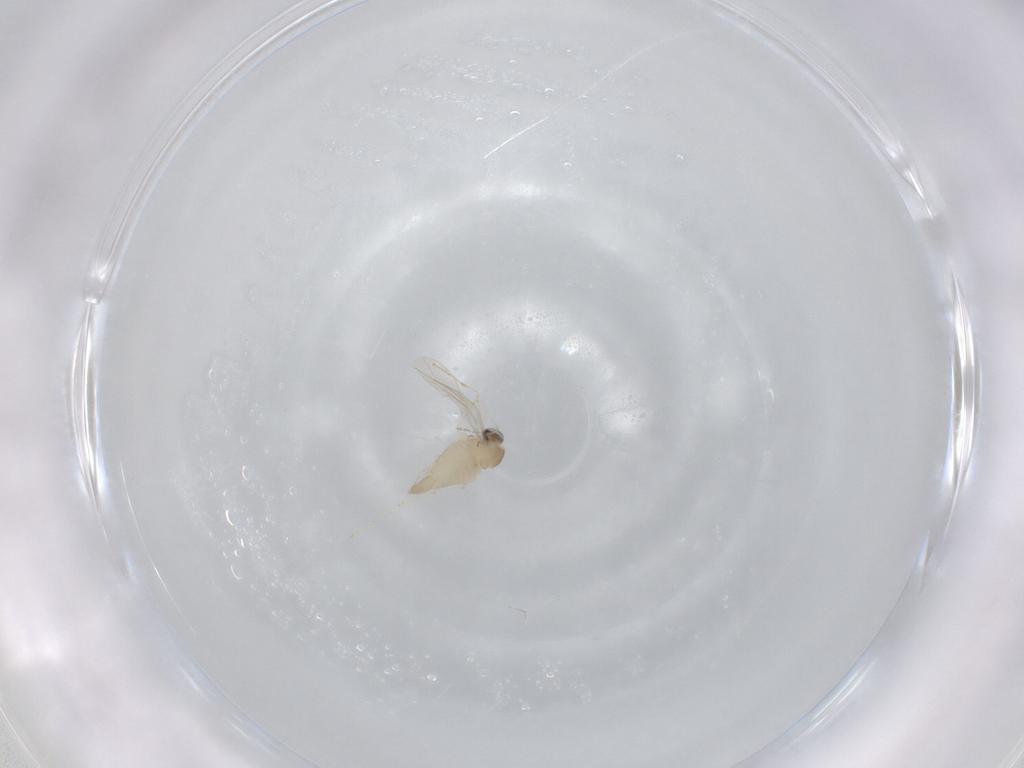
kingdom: Animalia
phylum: Arthropoda
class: Insecta
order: Diptera
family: Cecidomyiidae
